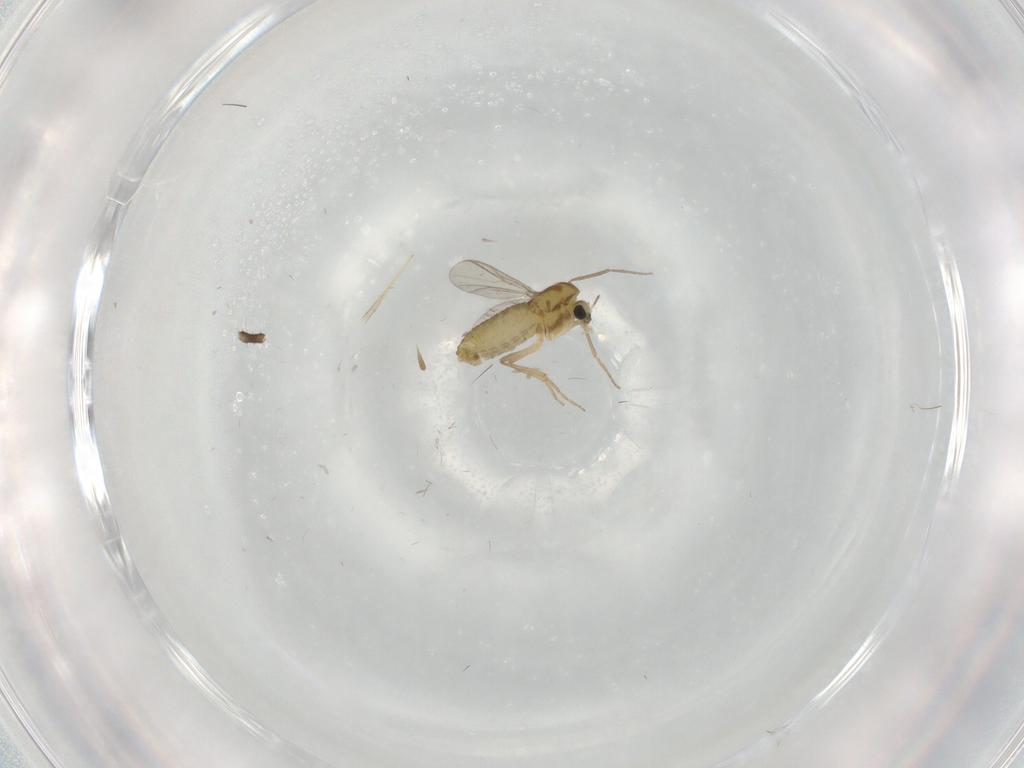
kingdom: Animalia
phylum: Arthropoda
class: Insecta
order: Diptera
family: Chironomidae
